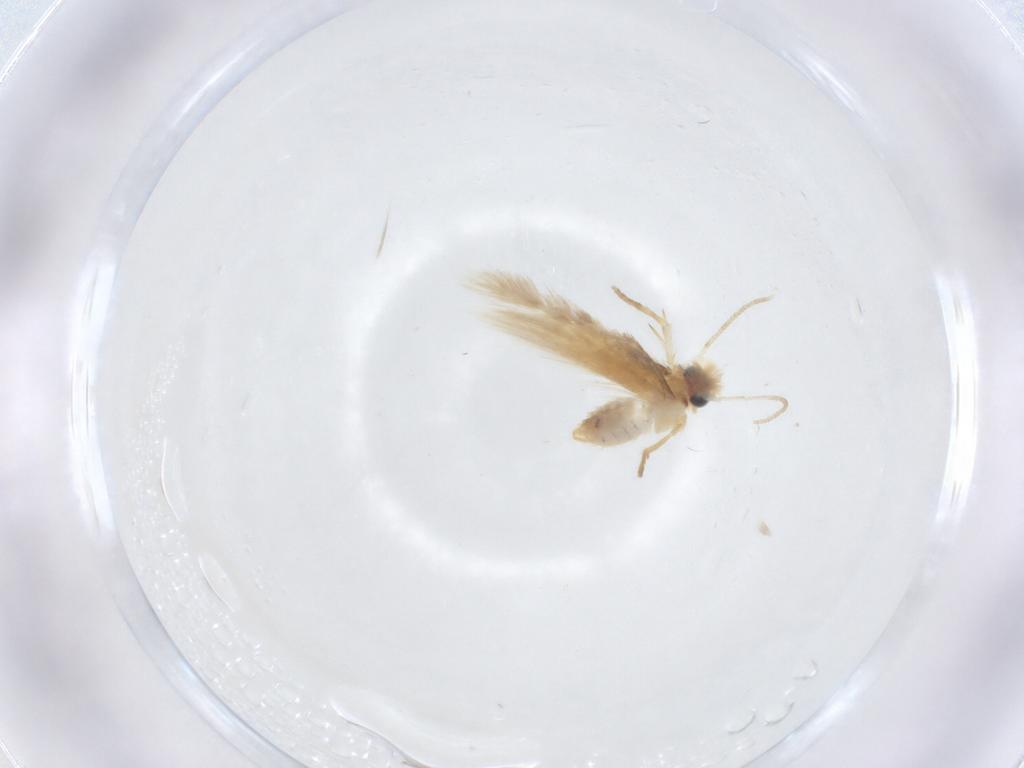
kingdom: Animalia
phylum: Arthropoda
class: Insecta
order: Lepidoptera
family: Nepticulidae
